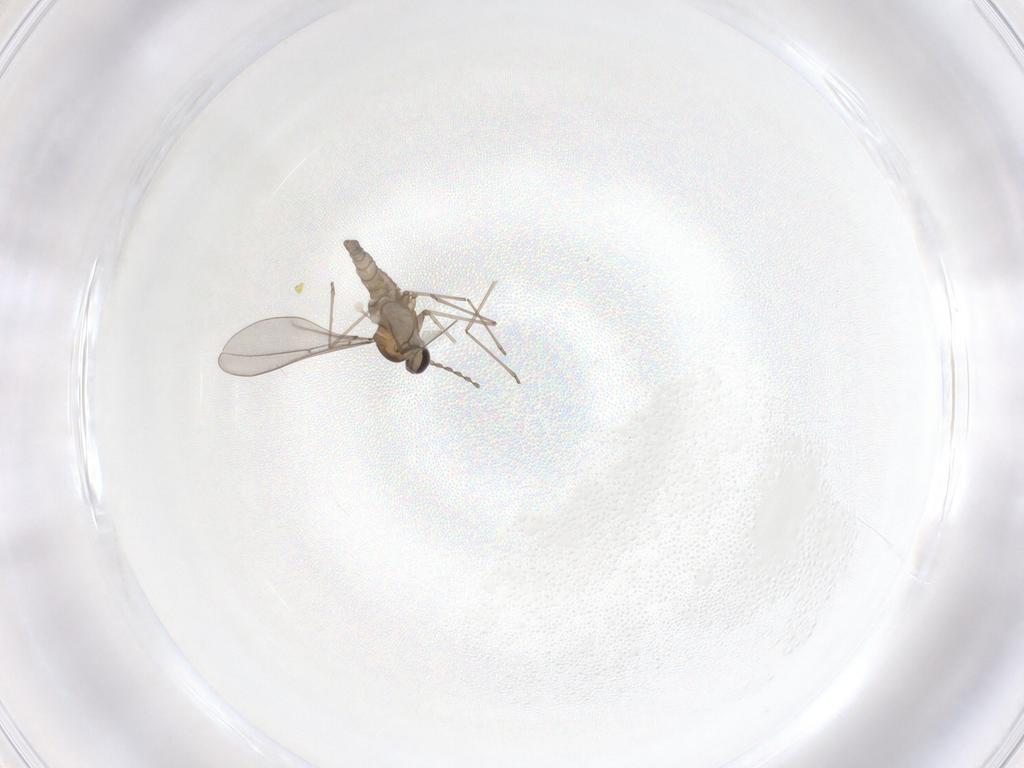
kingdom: Animalia
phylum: Arthropoda
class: Insecta
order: Diptera
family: Cecidomyiidae
